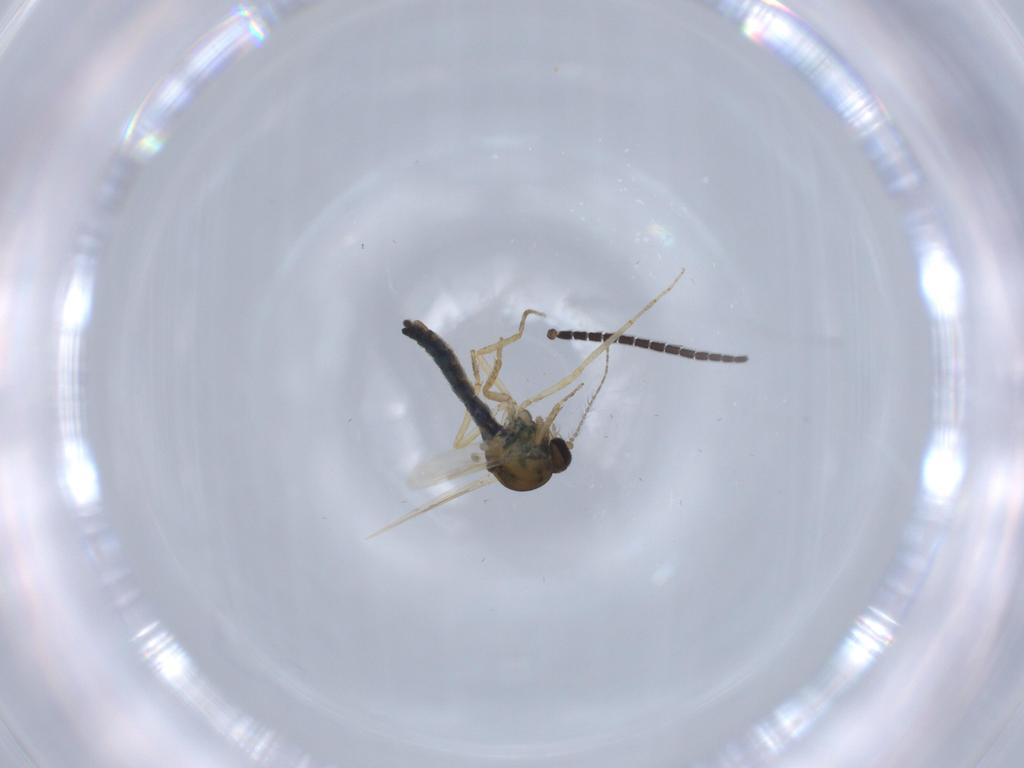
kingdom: Animalia
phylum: Arthropoda
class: Insecta
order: Diptera
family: Ceratopogonidae
